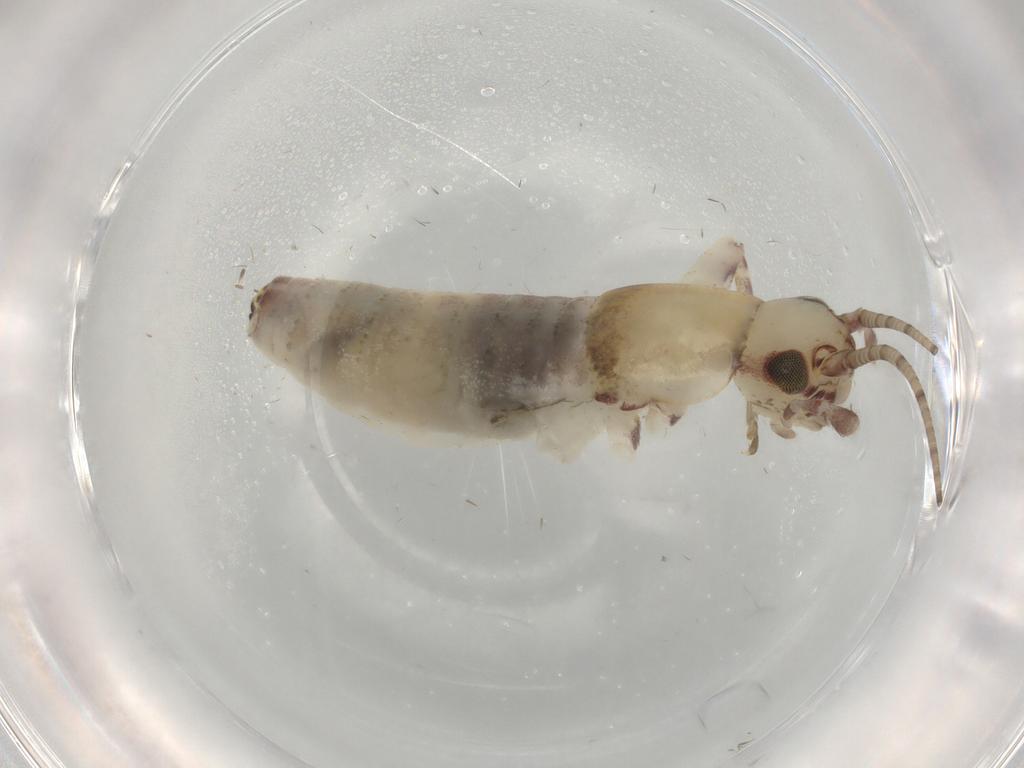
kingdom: Animalia
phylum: Arthropoda
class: Insecta
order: Orthoptera
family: Mogoplistidae
